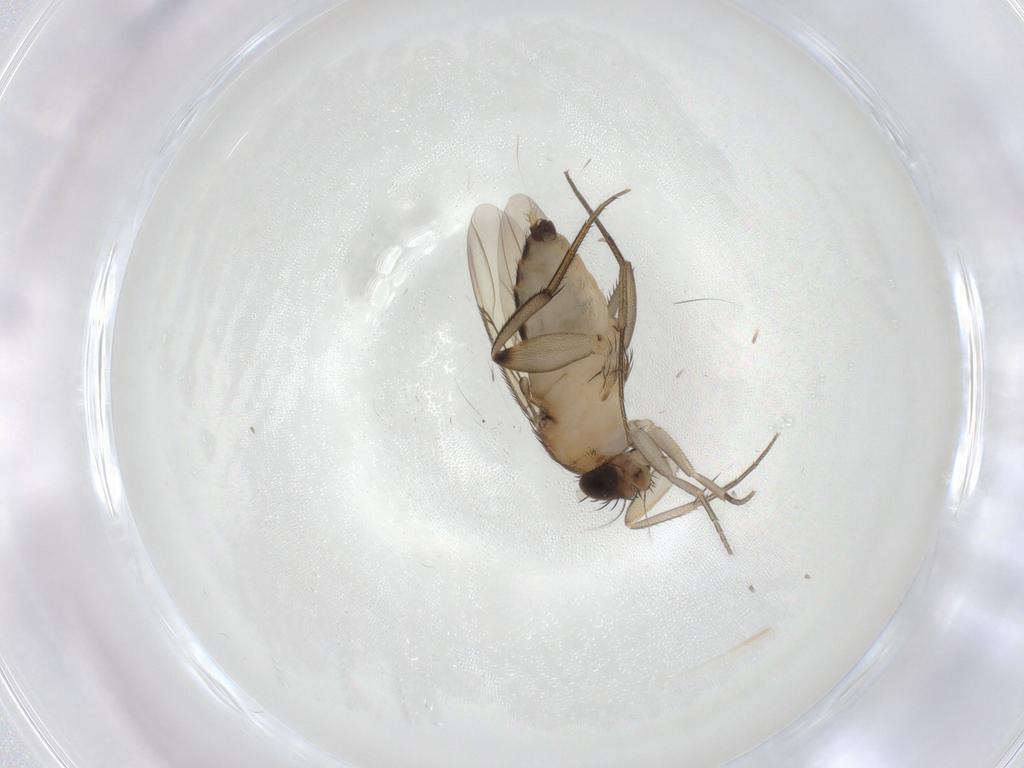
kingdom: Animalia
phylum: Arthropoda
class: Insecta
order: Diptera
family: Phoridae
